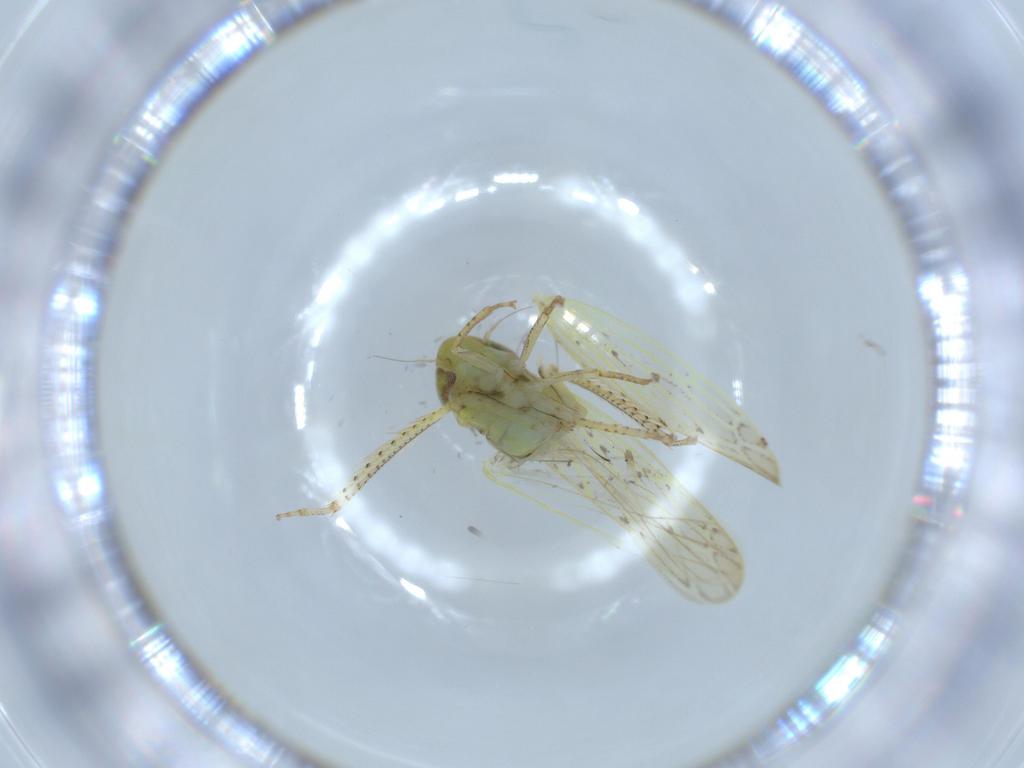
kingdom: Animalia
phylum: Arthropoda
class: Insecta
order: Hemiptera
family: Cicadellidae
